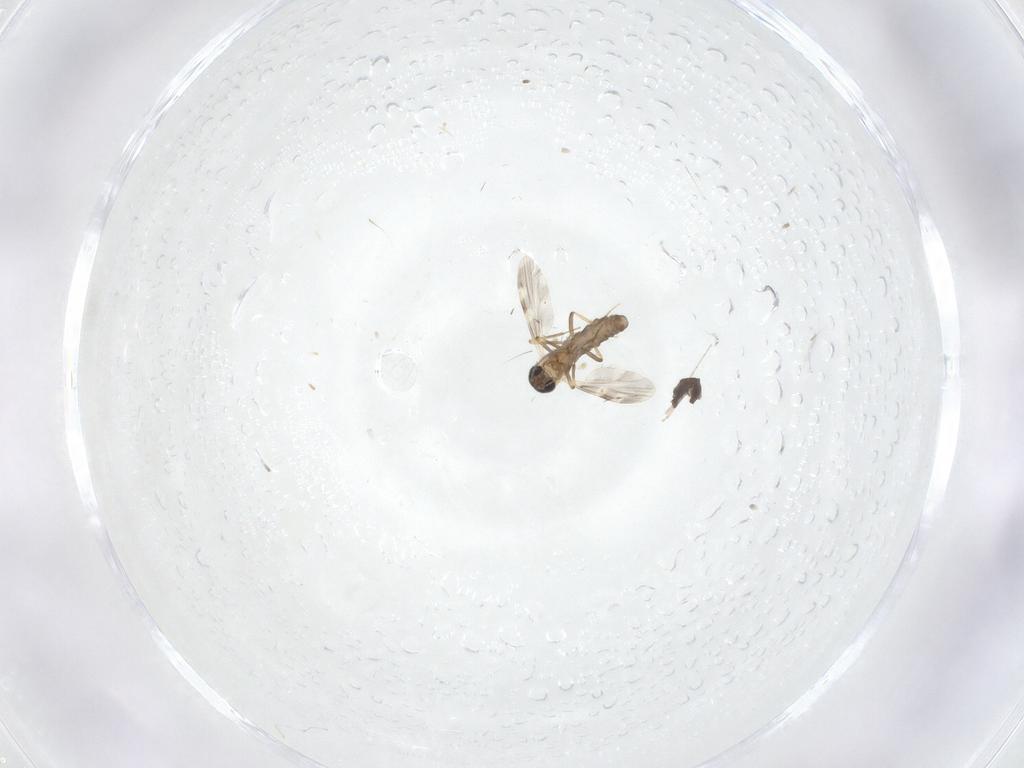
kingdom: Animalia
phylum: Arthropoda
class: Insecta
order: Diptera
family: Ceratopogonidae
